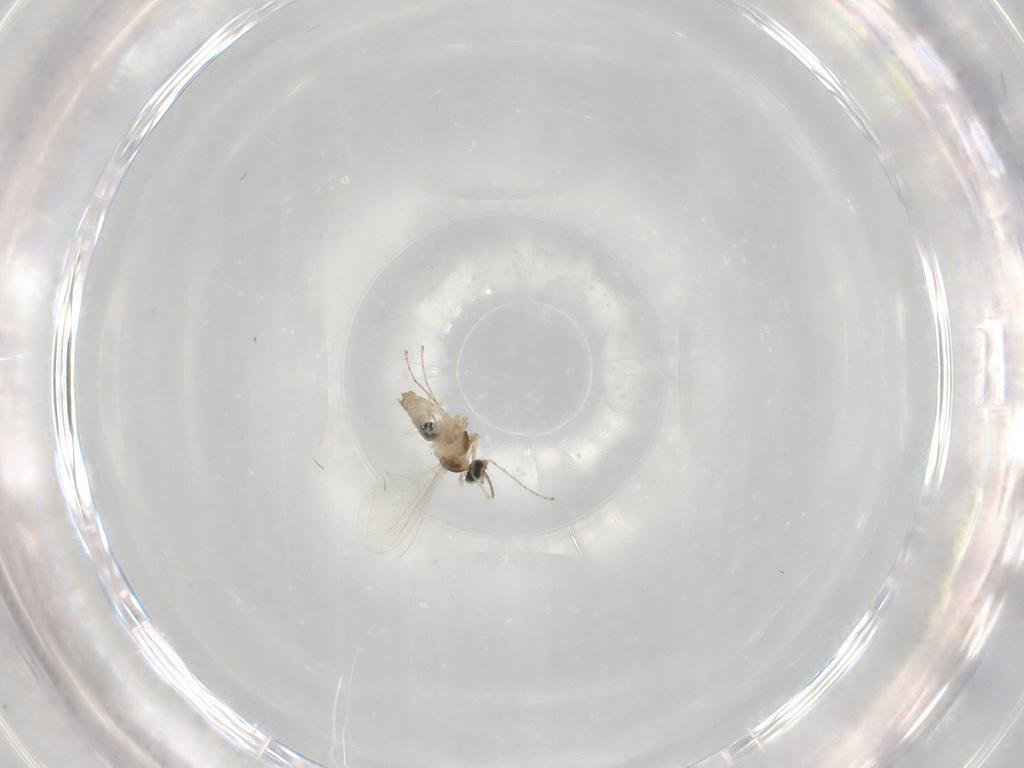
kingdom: Animalia
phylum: Arthropoda
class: Insecta
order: Diptera
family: Cecidomyiidae
